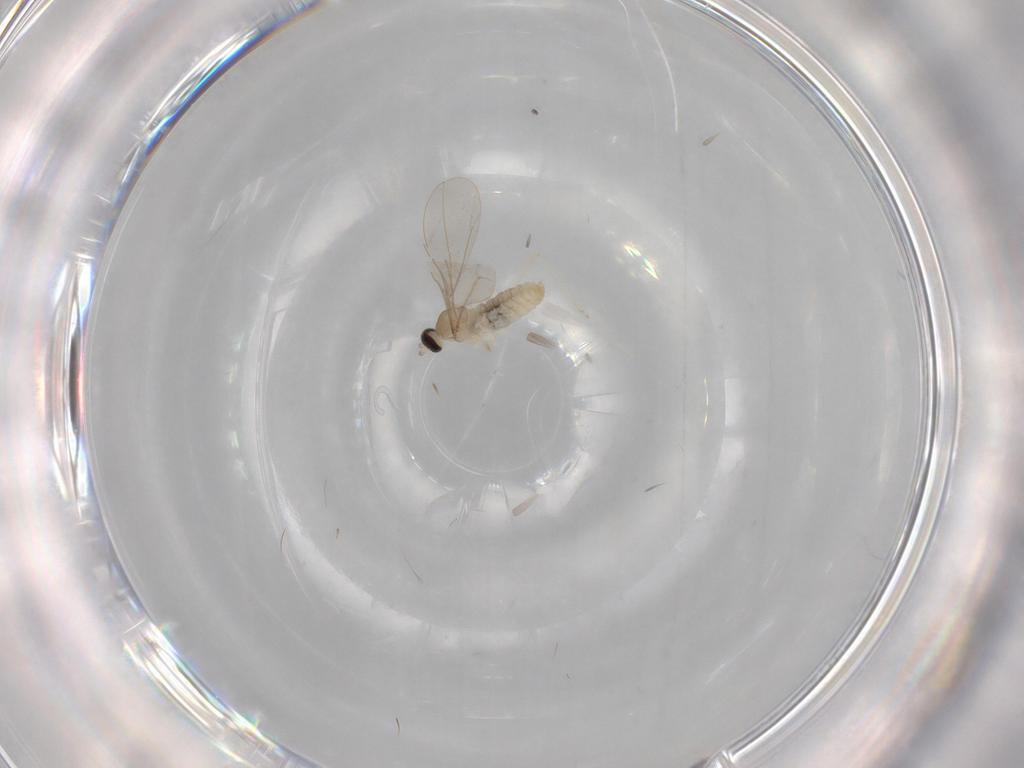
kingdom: Animalia
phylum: Arthropoda
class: Insecta
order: Diptera
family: Cecidomyiidae
